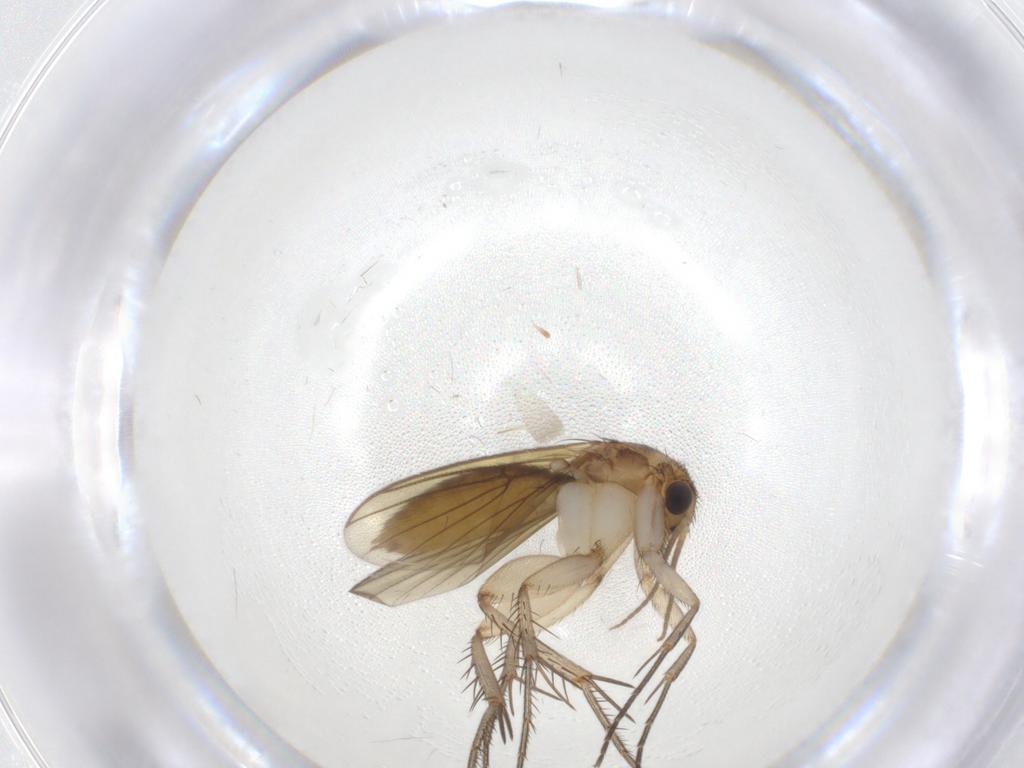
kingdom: Animalia
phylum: Arthropoda
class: Insecta
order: Diptera
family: Mycetophilidae
